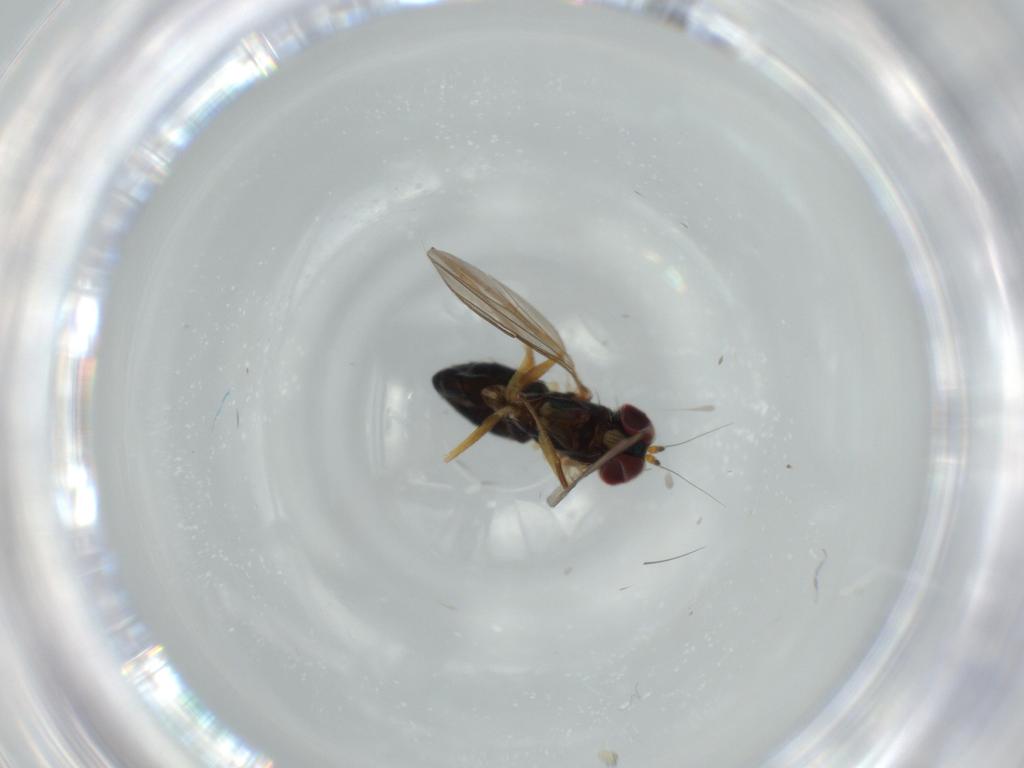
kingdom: Animalia
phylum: Arthropoda
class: Insecta
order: Diptera
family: Dolichopodidae
